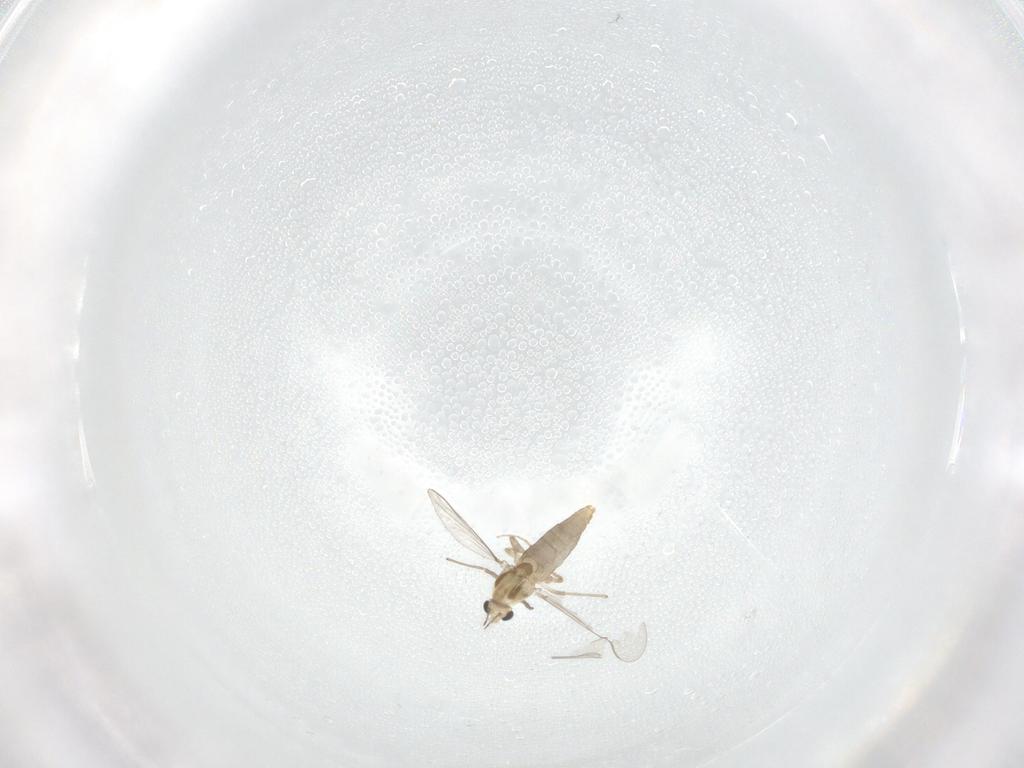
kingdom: Animalia
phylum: Arthropoda
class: Insecta
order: Diptera
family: Chironomidae
